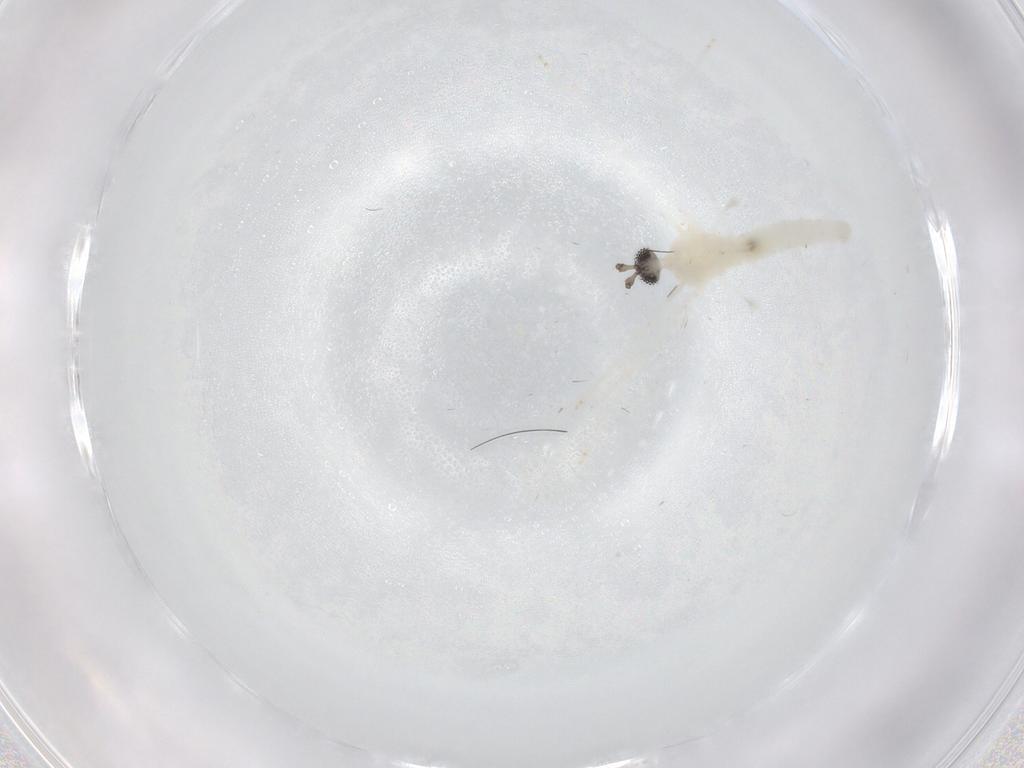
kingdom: Animalia
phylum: Arthropoda
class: Insecta
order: Diptera
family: Cecidomyiidae
